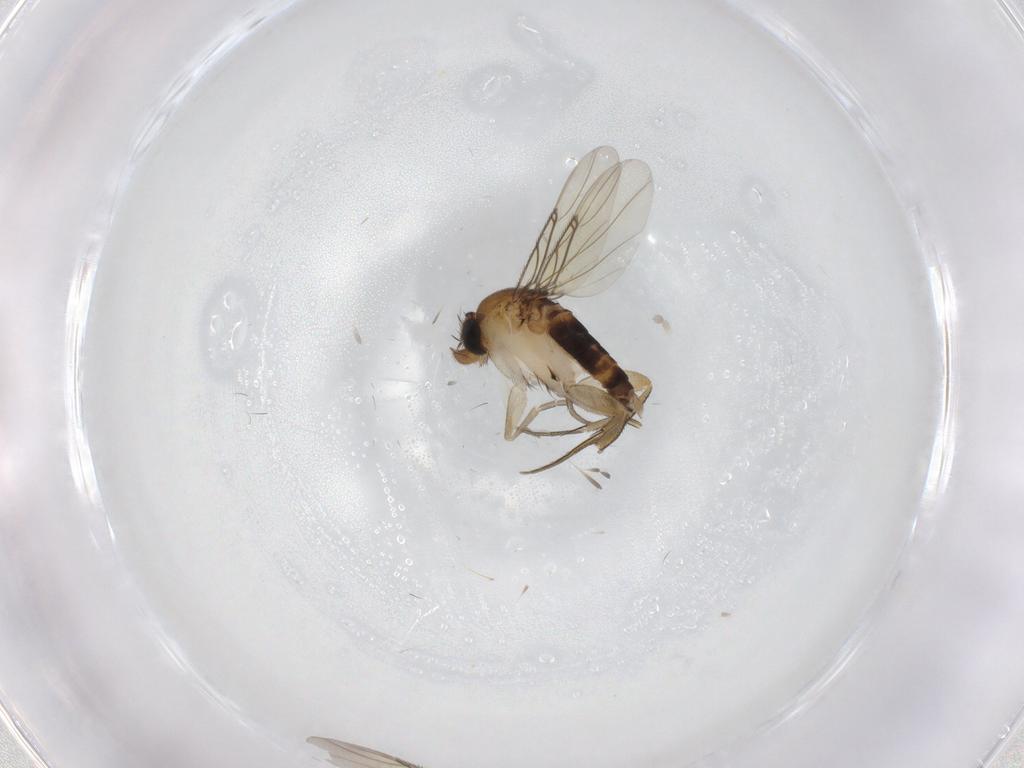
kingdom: Animalia
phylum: Arthropoda
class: Insecta
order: Diptera
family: Phoridae
